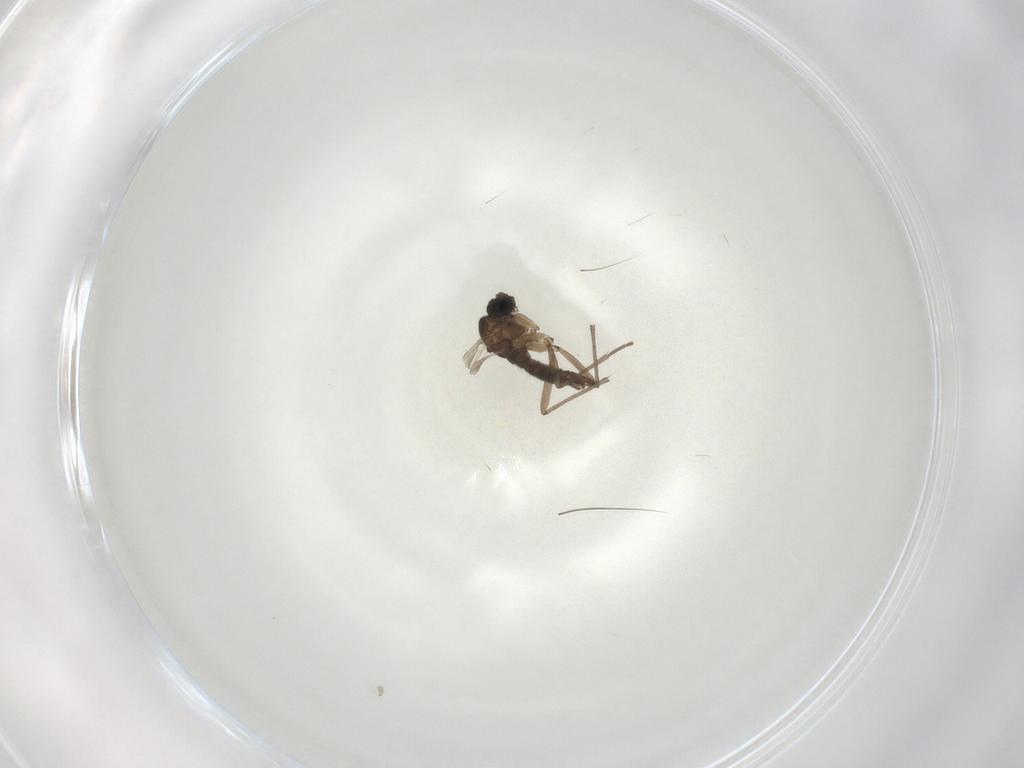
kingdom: Animalia
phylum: Arthropoda
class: Insecta
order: Diptera
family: Sciaridae
